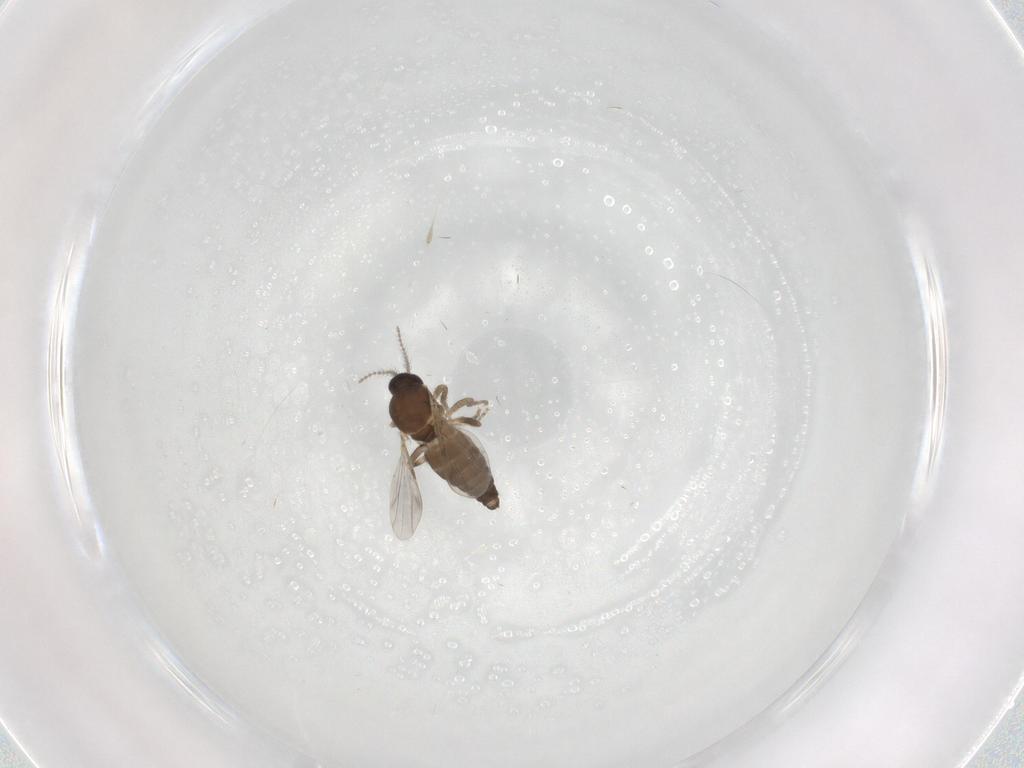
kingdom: Animalia
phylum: Arthropoda
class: Insecta
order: Diptera
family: Ceratopogonidae
